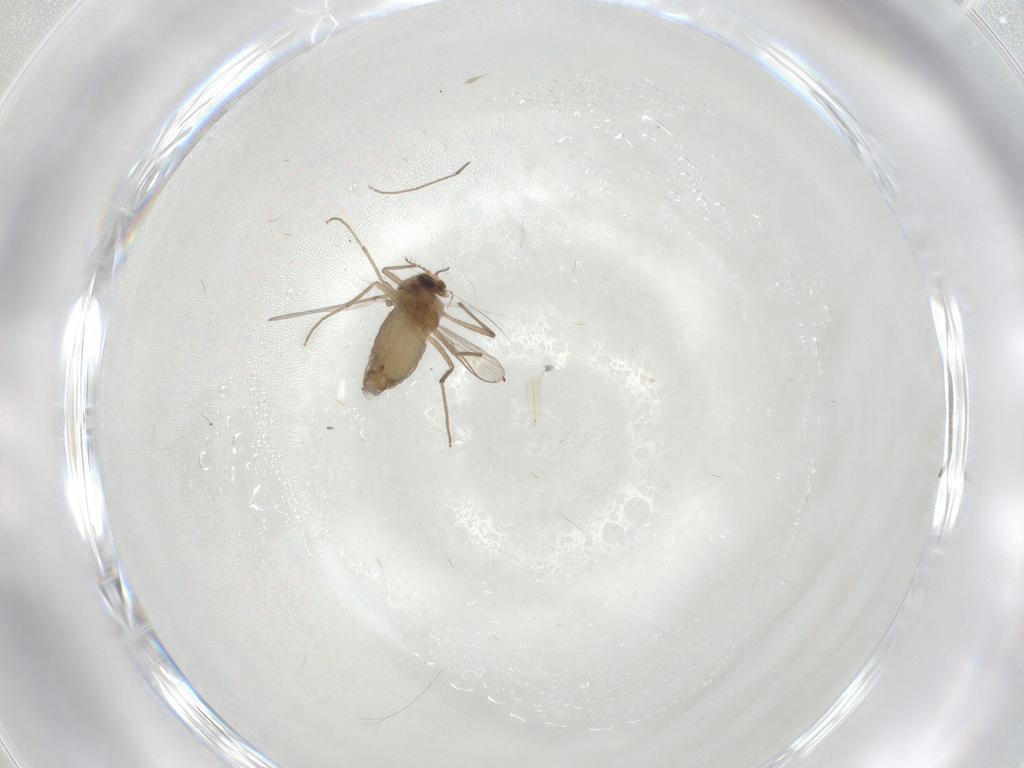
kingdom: Animalia
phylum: Arthropoda
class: Insecta
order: Diptera
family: Chironomidae
